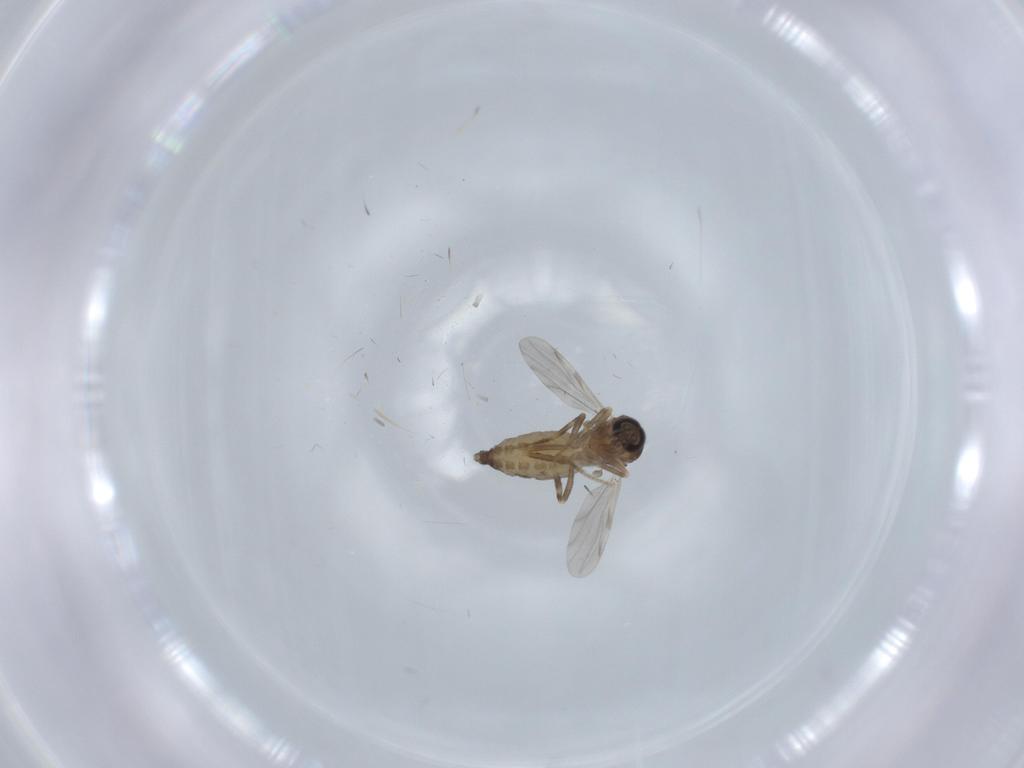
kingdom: Animalia
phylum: Arthropoda
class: Insecta
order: Diptera
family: Ceratopogonidae
